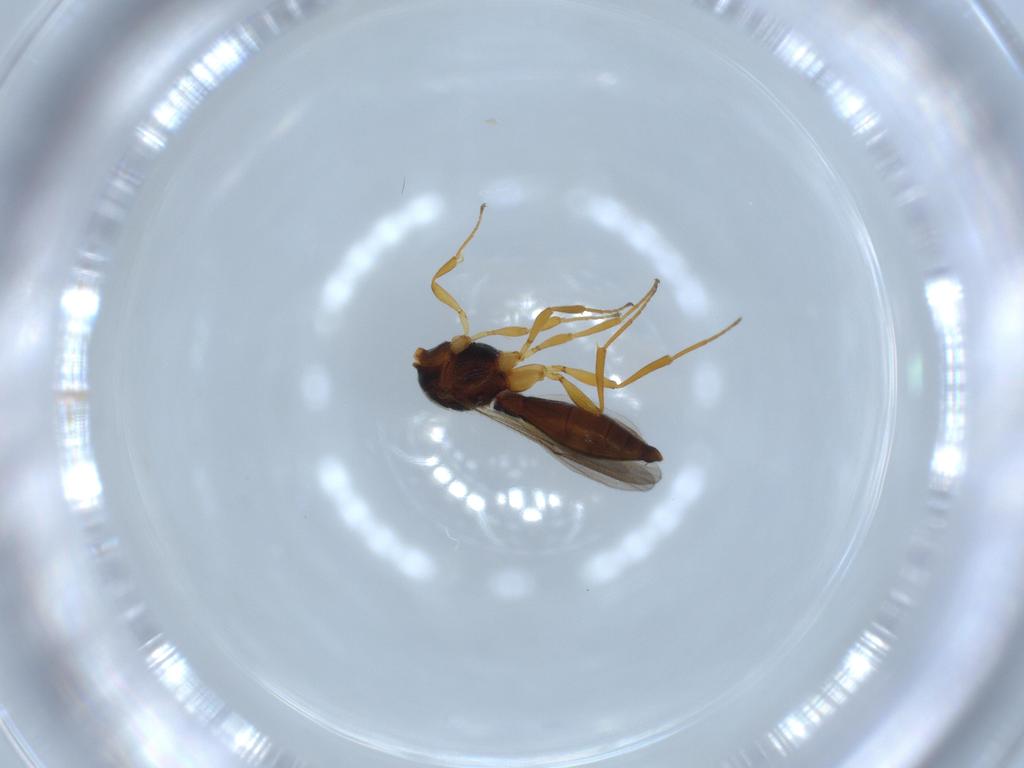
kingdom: Animalia
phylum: Arthropoda
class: Insecta
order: Hymenoptera
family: Scelionidae
